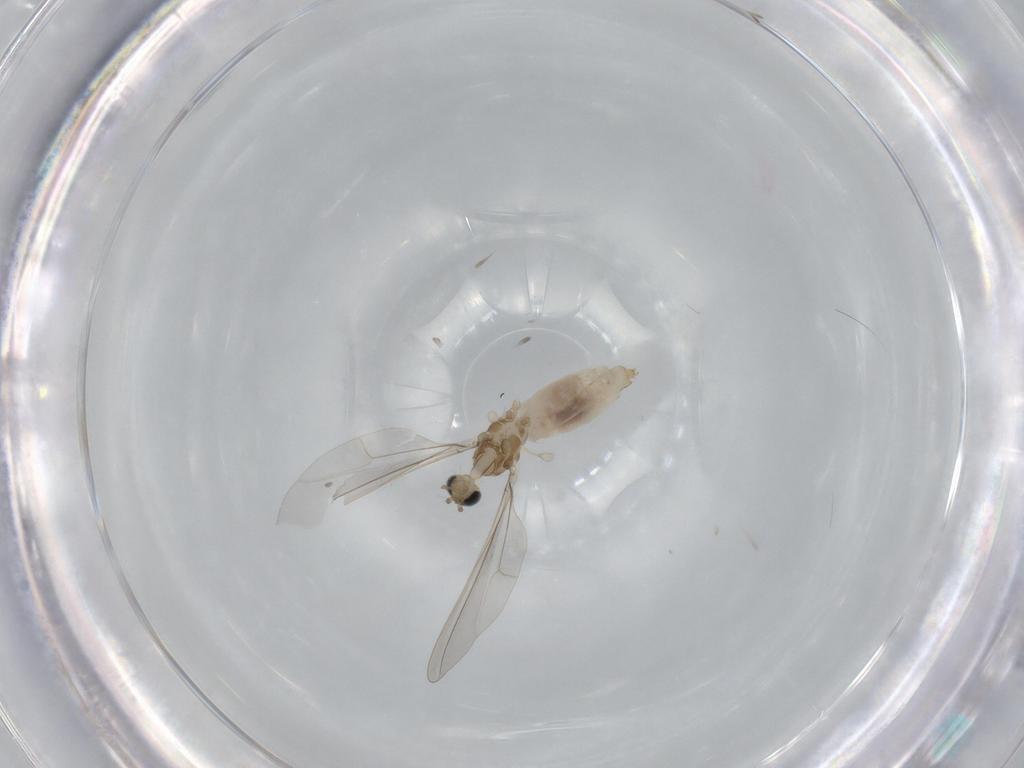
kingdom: Animalia
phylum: Arthropoda
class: Insecta
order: Diptera
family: Cecidomyiidae
